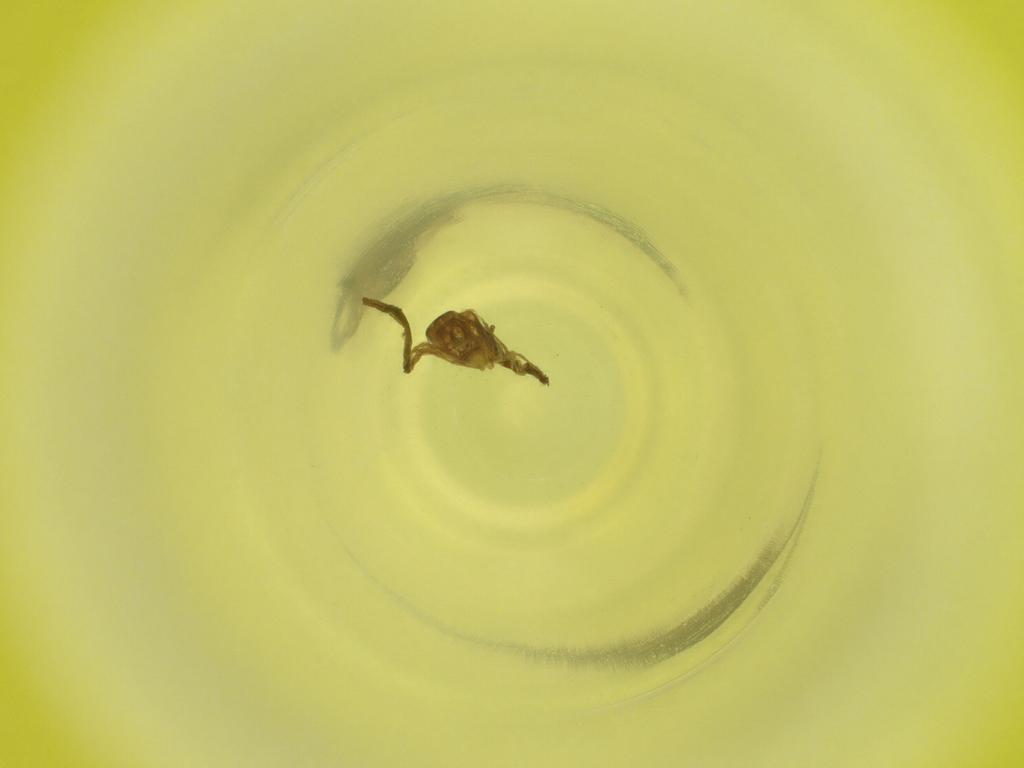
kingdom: Animalia
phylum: Arthropoda
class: Insecta
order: Diptera
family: Cecidomyiidae
